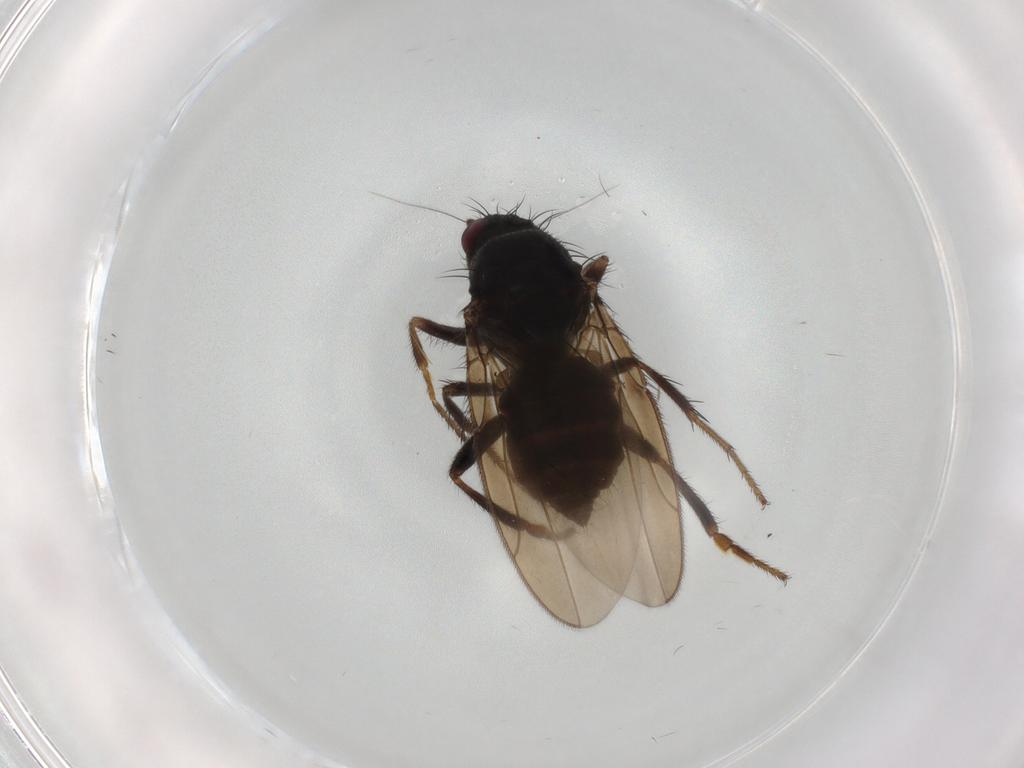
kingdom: Animalia
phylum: Arthropoda
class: Insecta
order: Diptera
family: Sphaeroceridae
